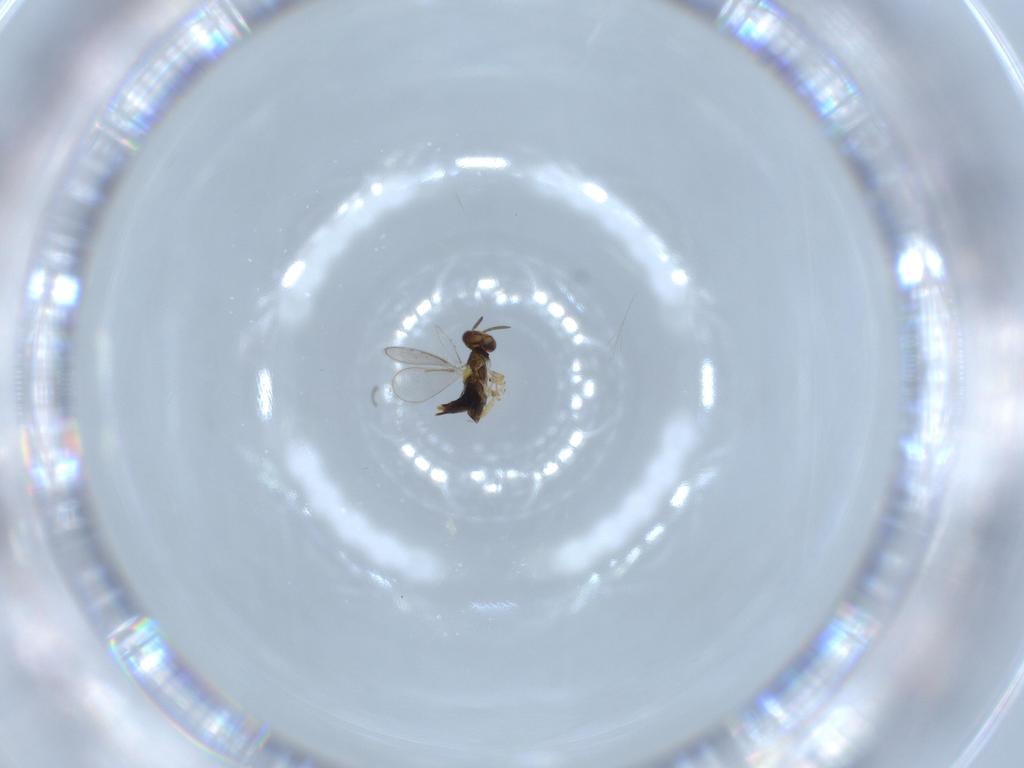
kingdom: Animalia
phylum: Arthropoda
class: Insecta
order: Hymenoptera
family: Aphelinidae
